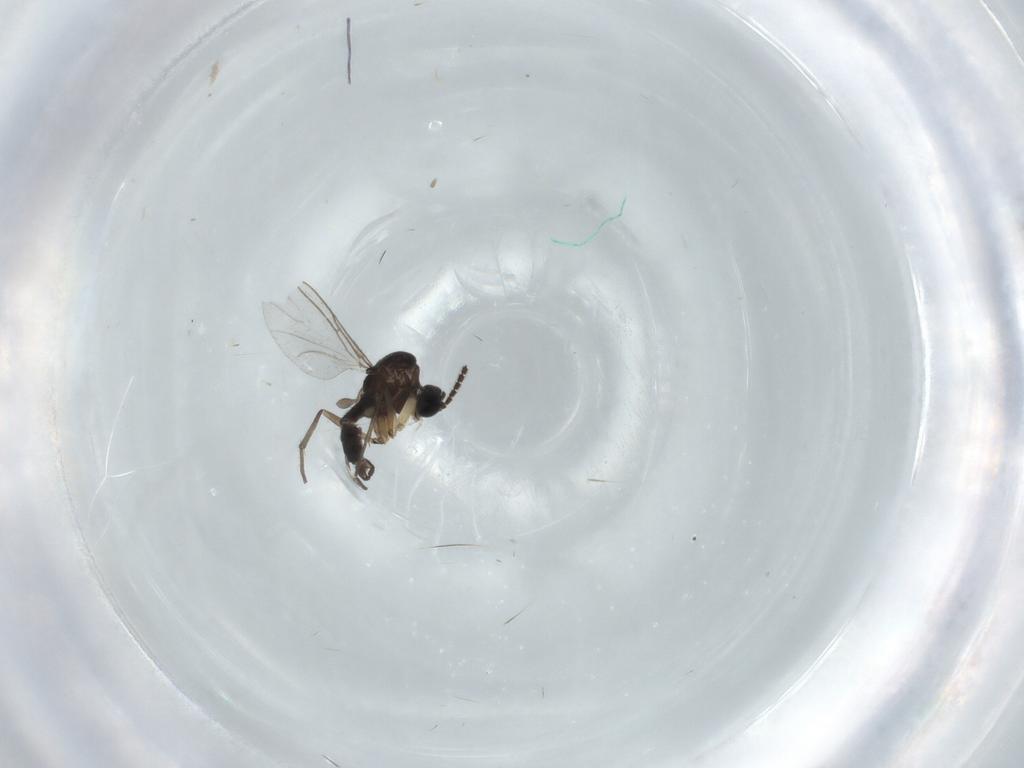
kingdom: Animalia
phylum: Arthropoda
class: Insecta
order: Diptera
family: Sciaridae
